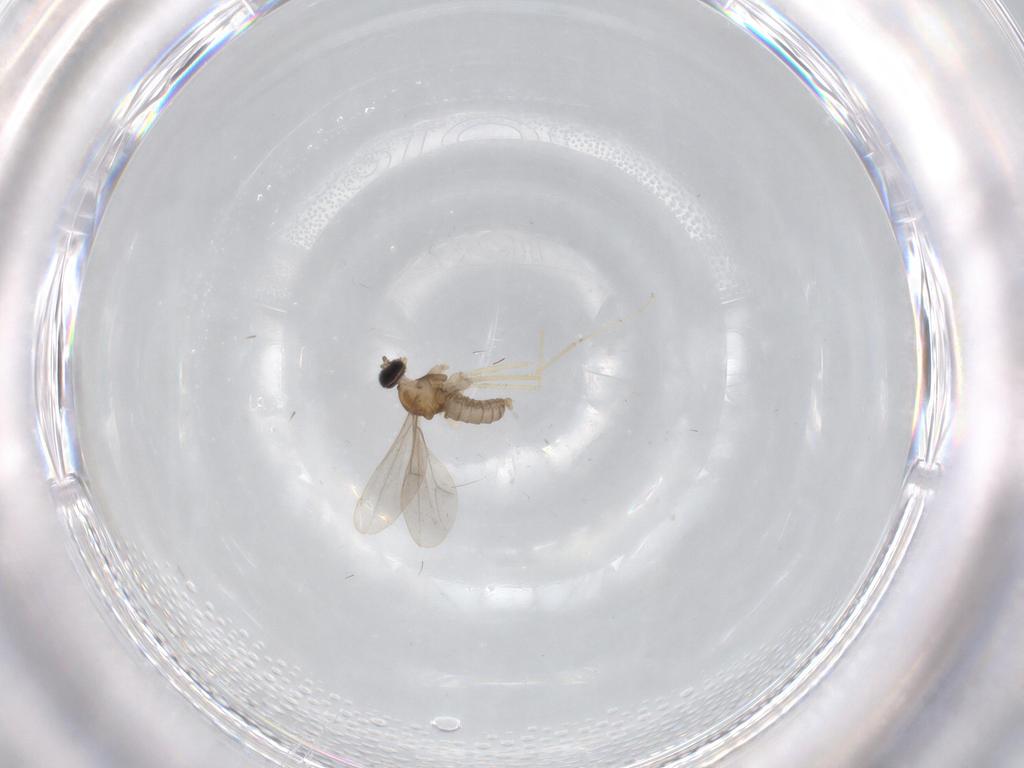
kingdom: Animalia
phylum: Arthropoda
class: Insecta
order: Diptera
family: Cecidomyiidae
